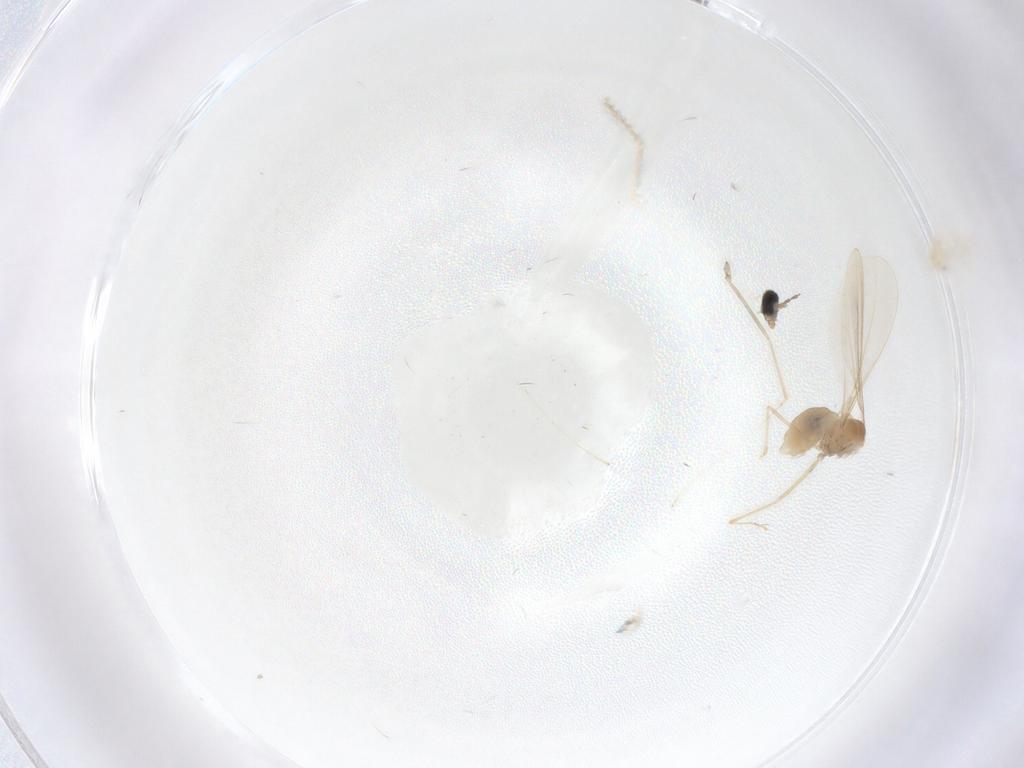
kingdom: Animalia
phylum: Arthropoda
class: Insecta
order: Diptera
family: Cecidomyiidae
